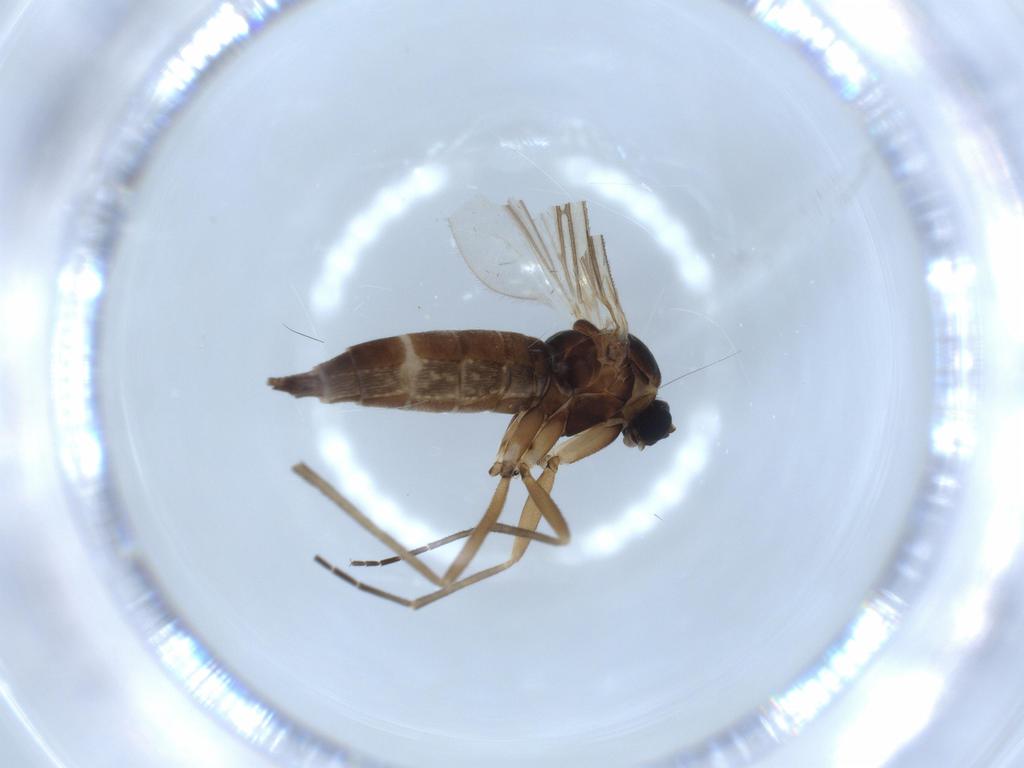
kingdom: Animalia
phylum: Arthropoda
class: Insecta
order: Diptera
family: Sciaridae
